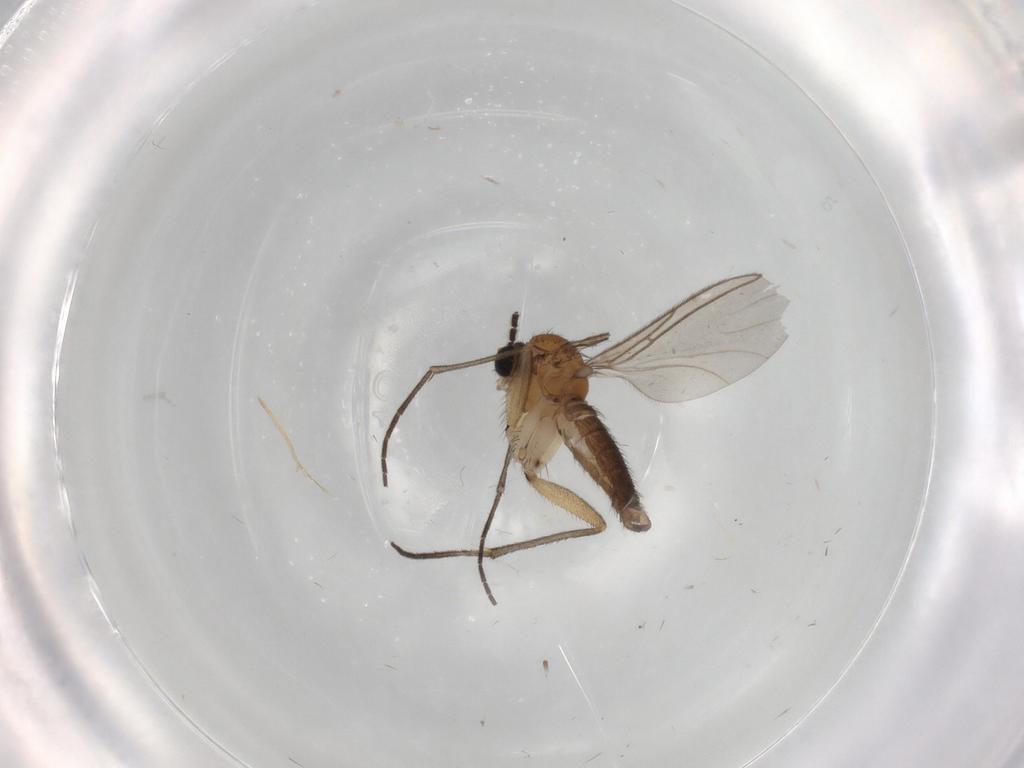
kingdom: Animalia
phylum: Arthropoda
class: Insecta
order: Diptera
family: Sciaridae
